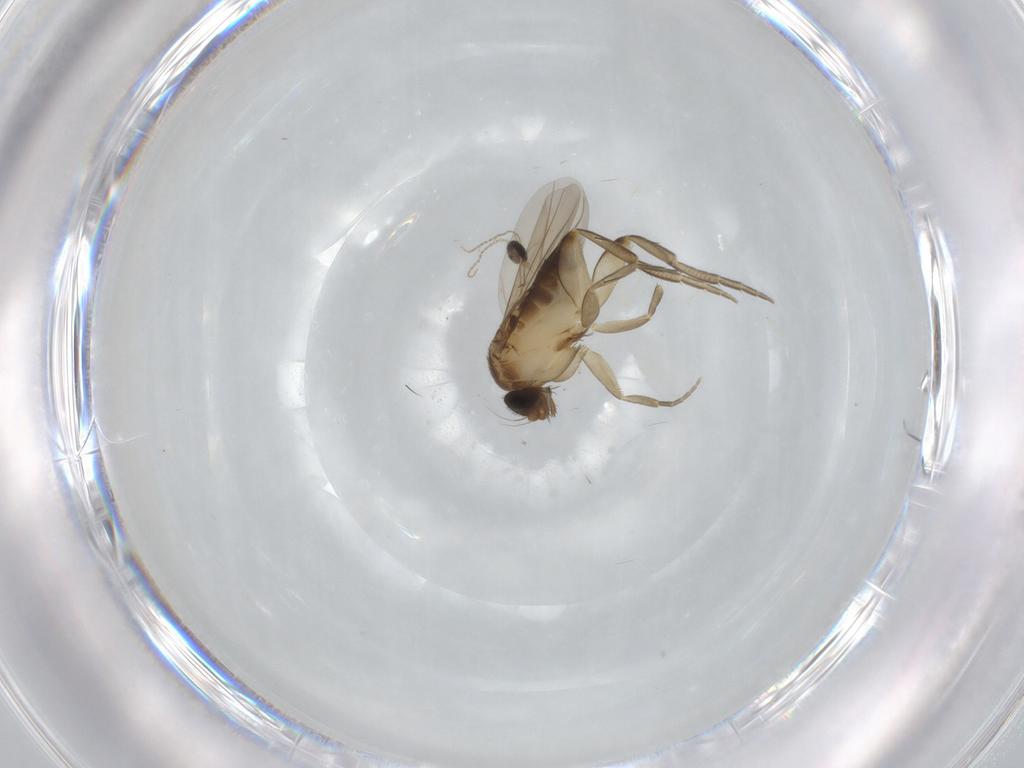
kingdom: Animalia
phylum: Arthropoda
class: Insecta
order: Diptera
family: Phoridae
